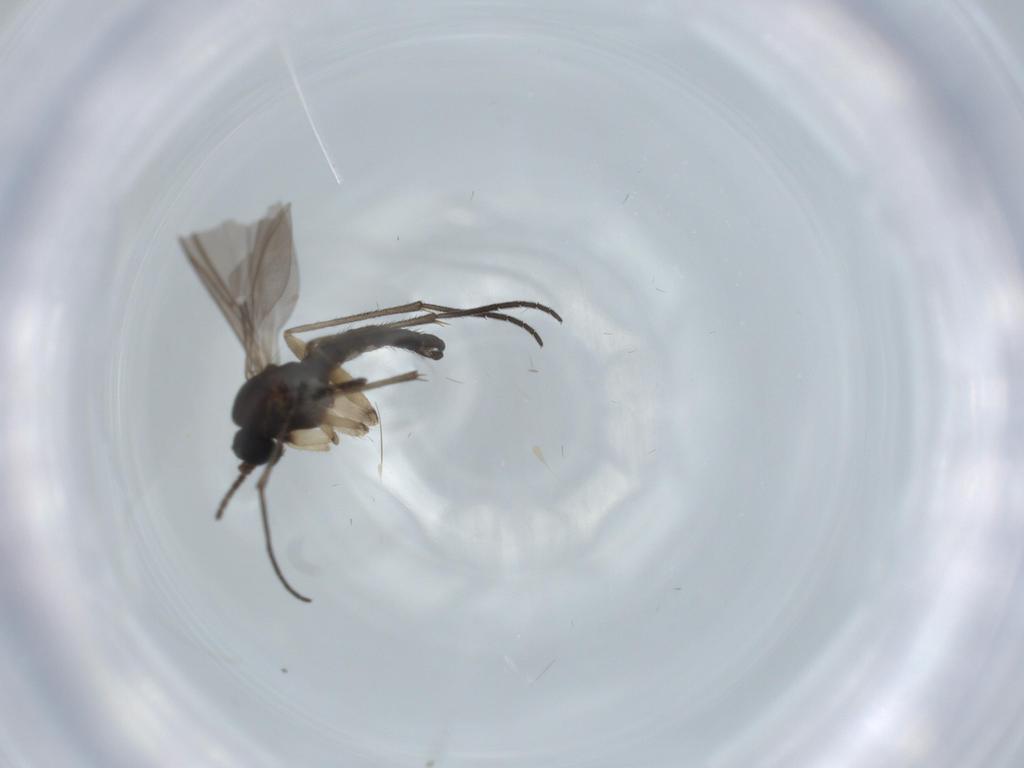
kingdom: Animalia
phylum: Arthropoda
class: Insecta
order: Diptera
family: Sciaridae
